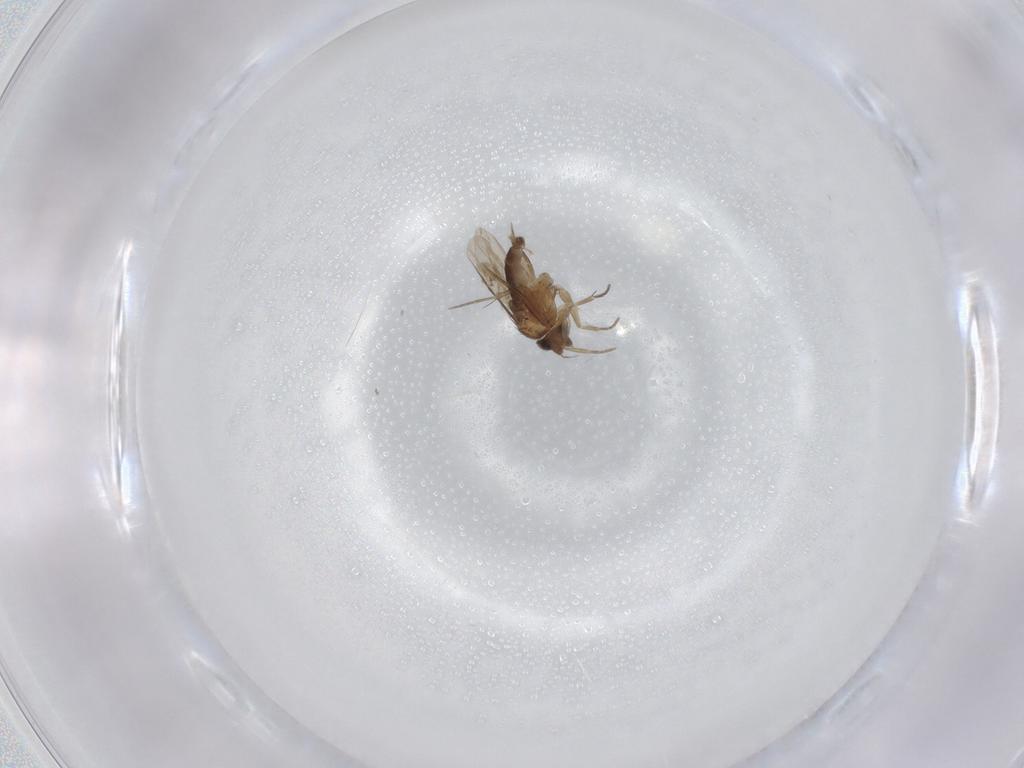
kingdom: Animalia
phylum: Arthropoda
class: Insecta
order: Diptera
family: Phoridae
